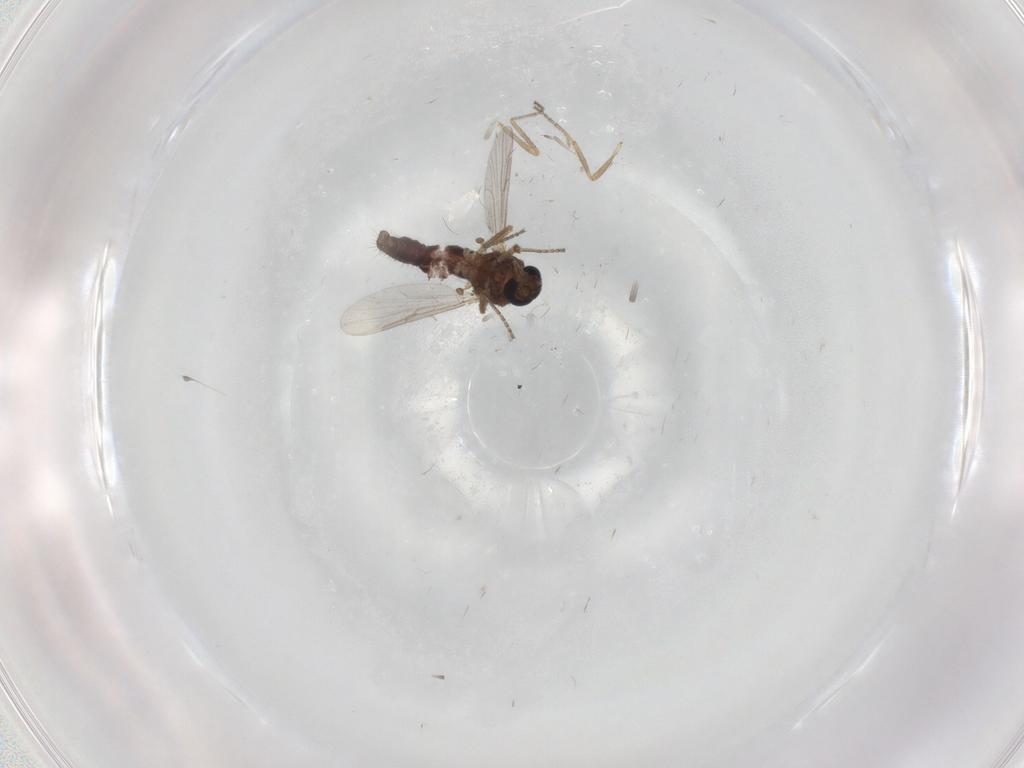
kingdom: Animalia
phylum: Arthropoda
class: Insecta
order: Diptera
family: Ceratopogonidae
